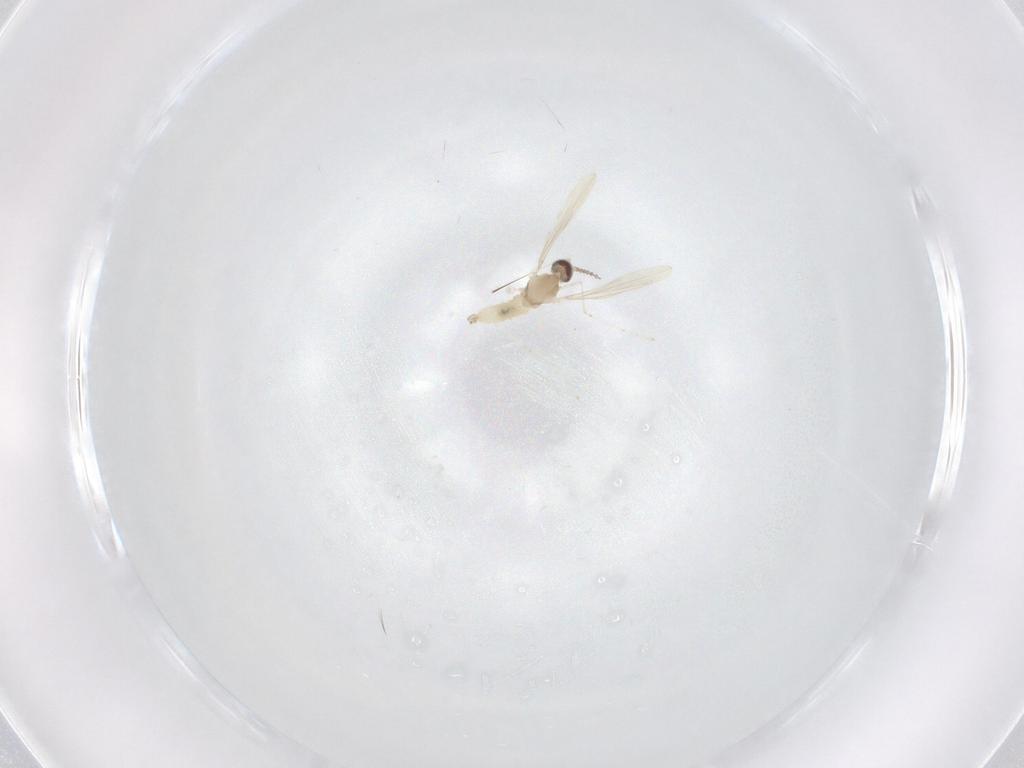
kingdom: Animalia
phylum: Arthropoda
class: Insecta
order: Diptera
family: Cecidomyiidae
